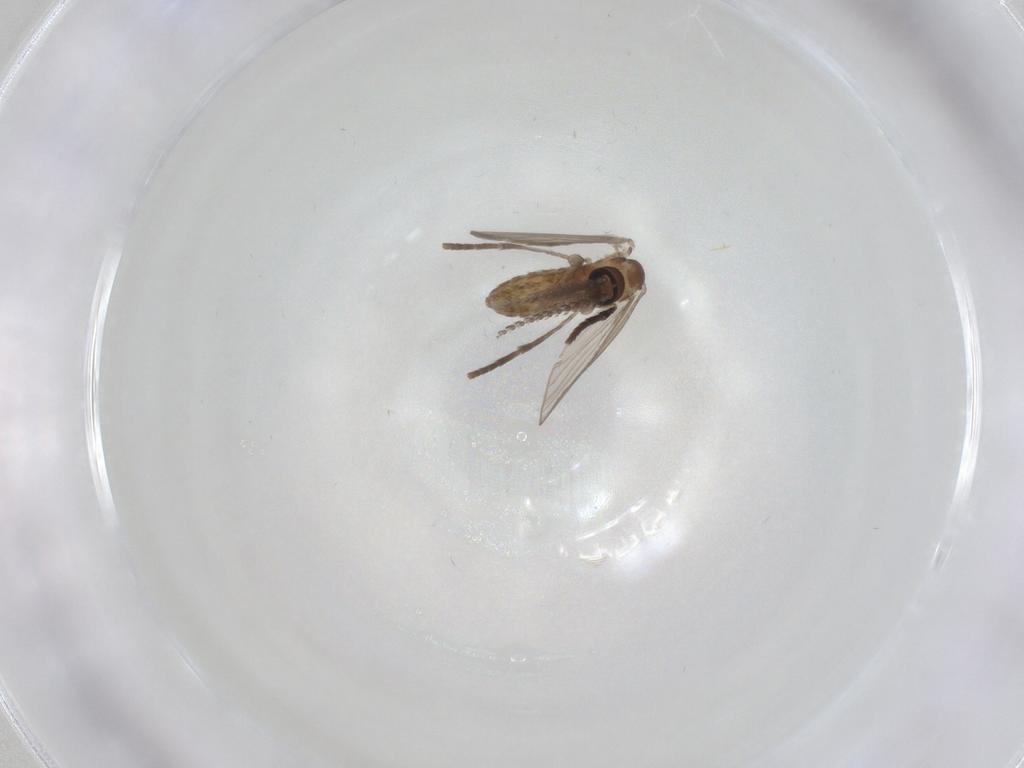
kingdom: Animalia
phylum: Arthropoda
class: Insecta
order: Diptera
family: Psychodidae
